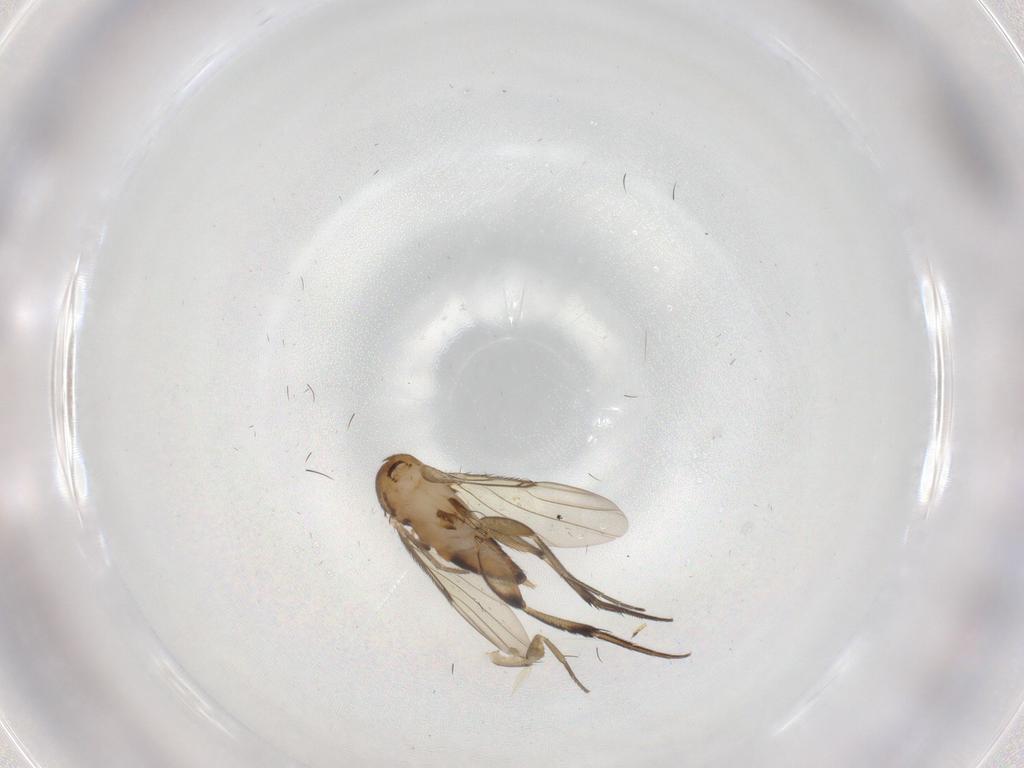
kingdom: Animalia
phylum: Arthropoda
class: Insecta
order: Diptera
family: Phoridae
